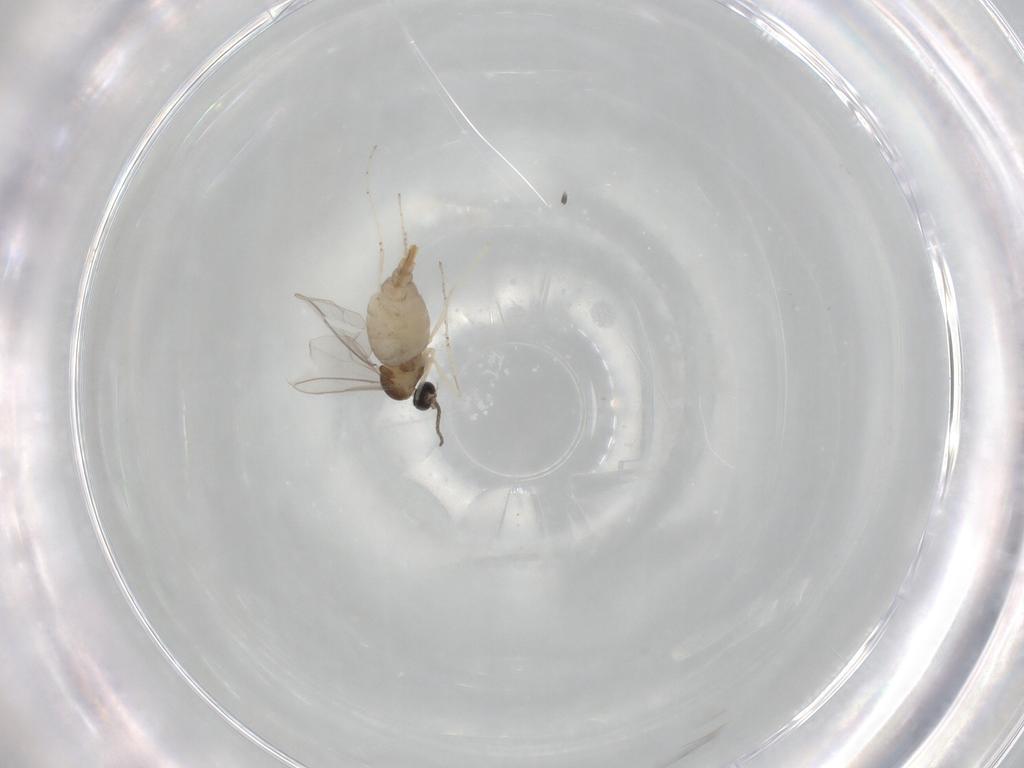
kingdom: Animalia
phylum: Arthropoda
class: Insecta
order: Diptera
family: Cecidomyiidae
